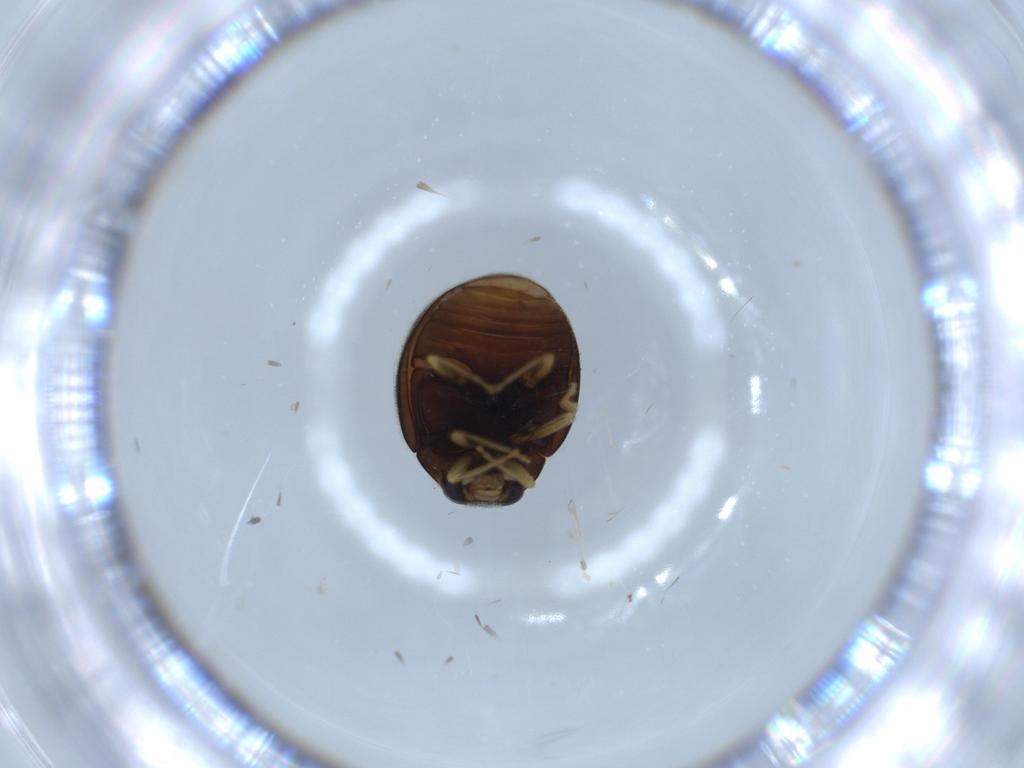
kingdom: Animalia
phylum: Arthropoda
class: Insecta
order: Coleoptera
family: Coccinellidae
